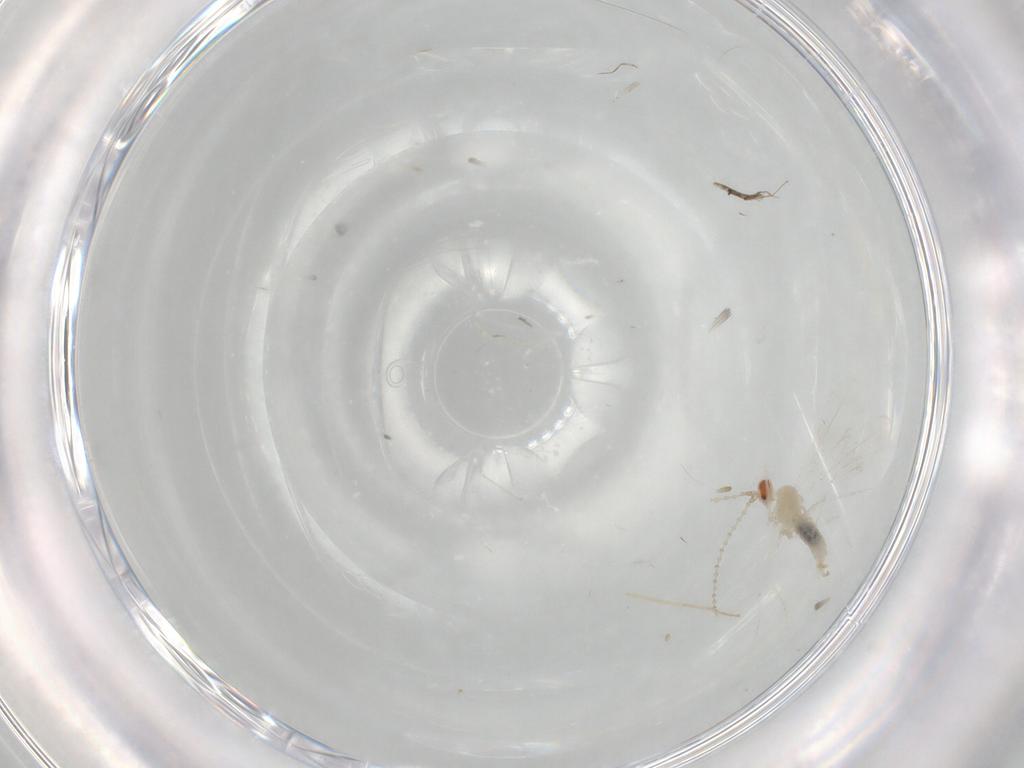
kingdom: Animalia
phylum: Arthropoda
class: Insecta
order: Diptera
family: Chironomidae
